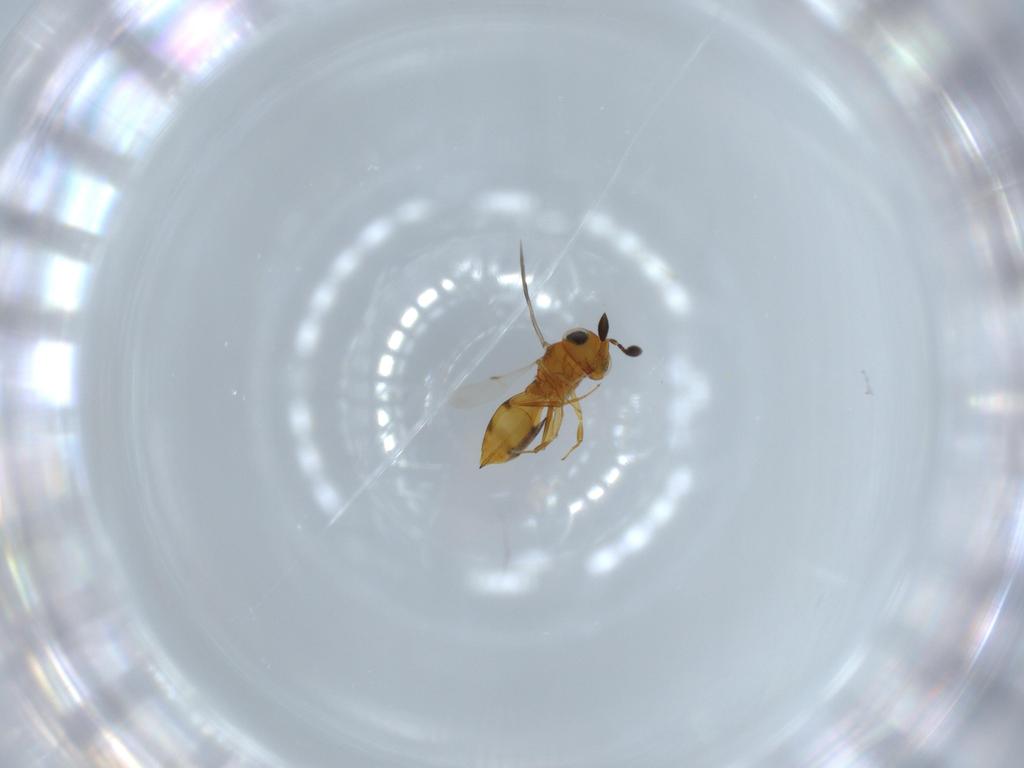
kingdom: Animalia
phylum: Arthropoda
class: Insecta
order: Hymenoptera
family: Scelionidae
